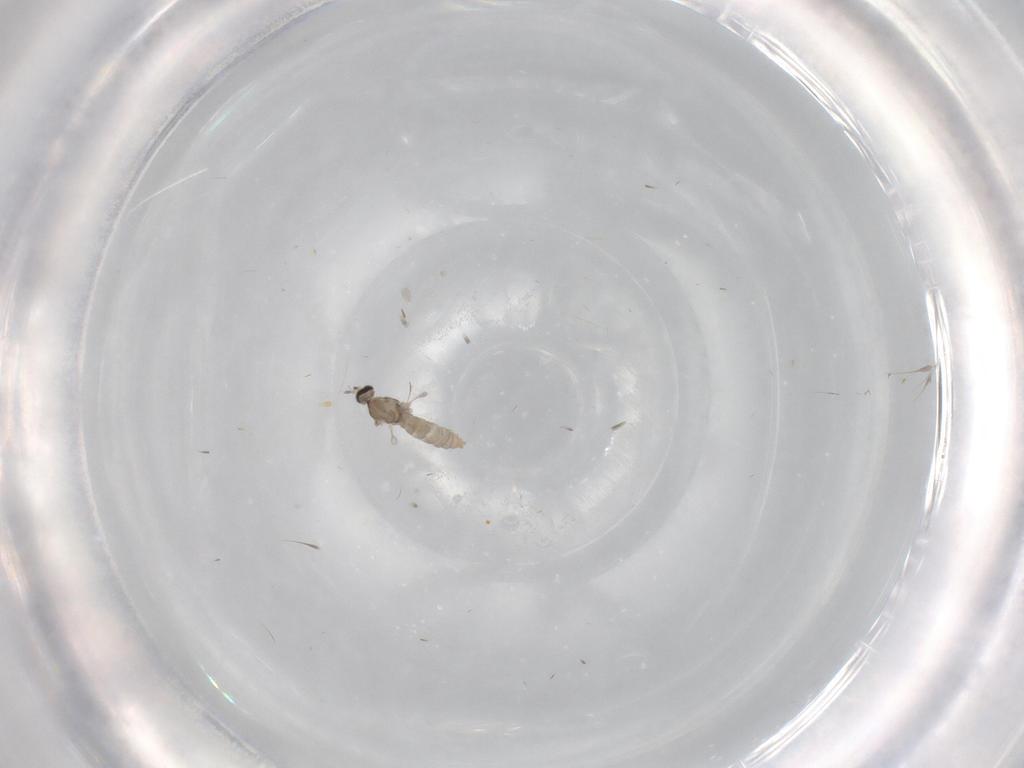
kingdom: Animalia
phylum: Arthropoda
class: Insecta
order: Diptera
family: Cecidomyiidae
